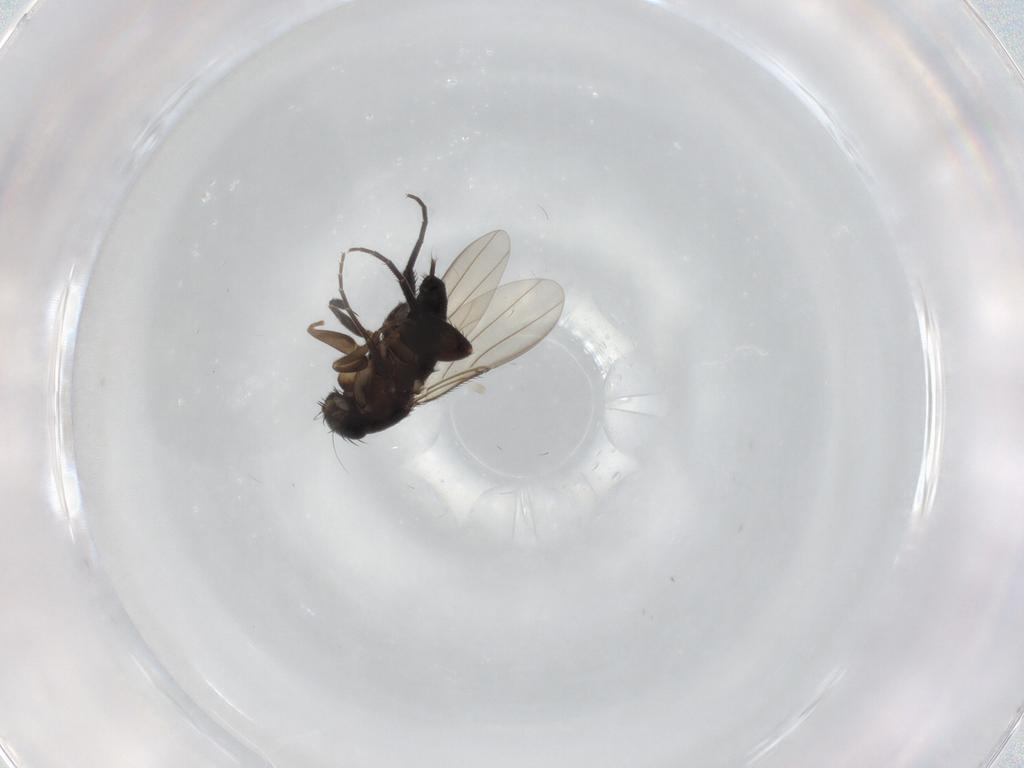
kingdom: Animalia
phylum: Arthropoda
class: Insecta
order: Diptera
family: Phoridae
